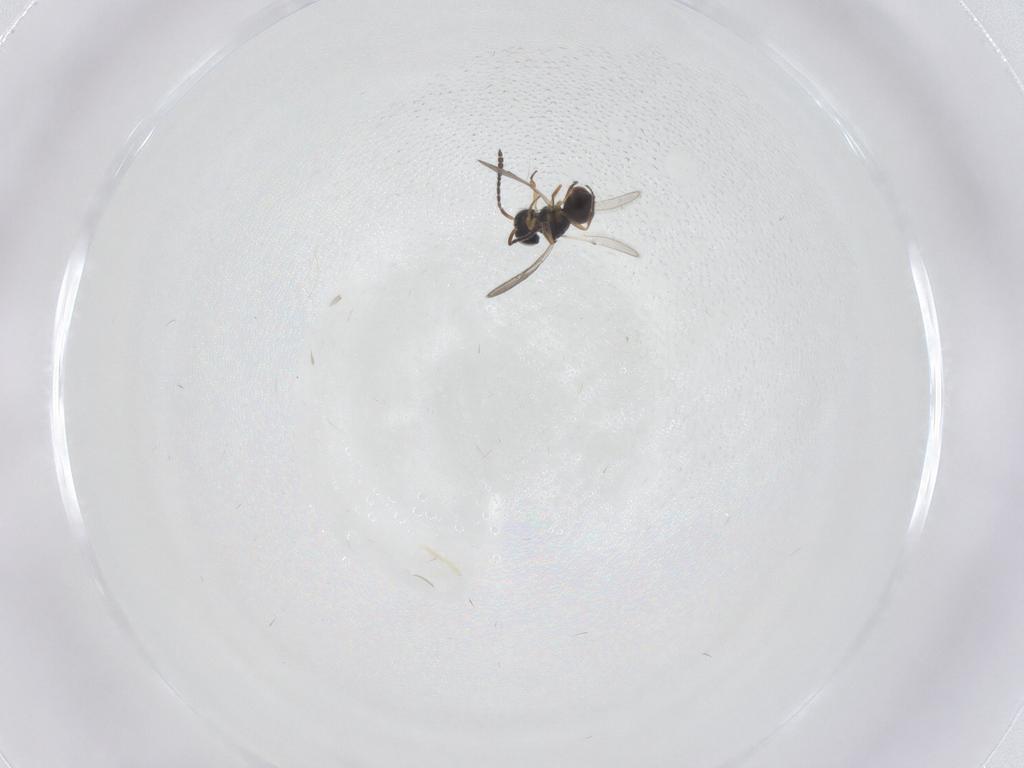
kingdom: Animalia
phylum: Arthropoda
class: Insecta
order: Hymenoptera
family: Scelionidae
